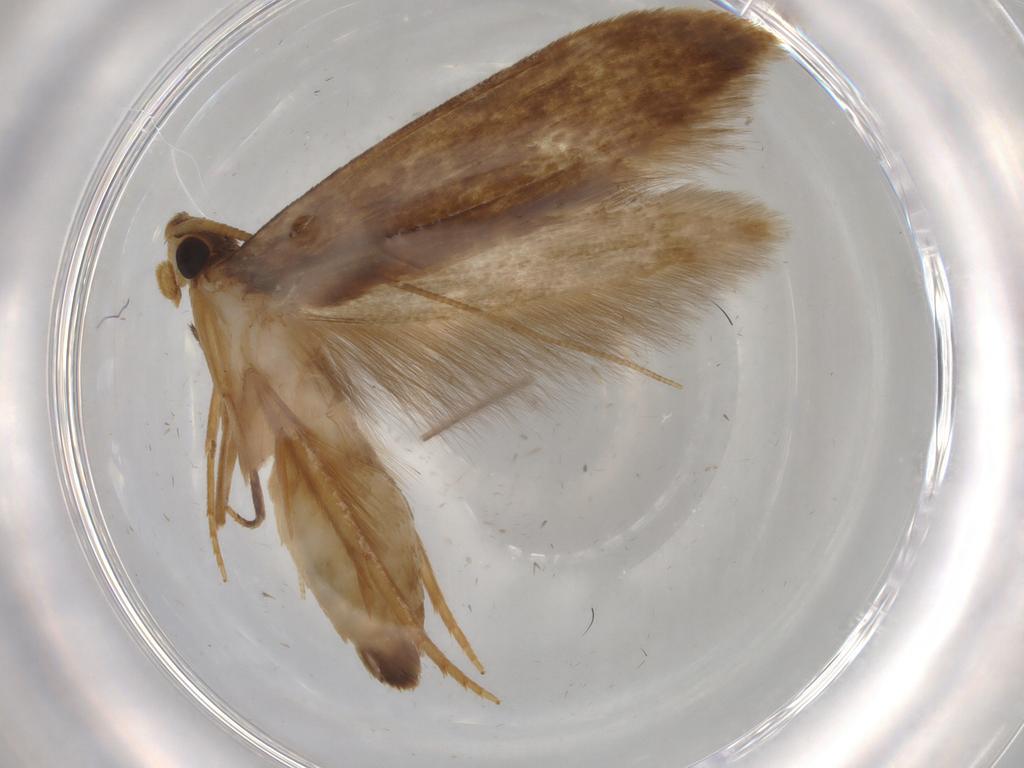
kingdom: Animalia
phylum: Arthropoda
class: Insecta
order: Lepidoptera
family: Tineidae
